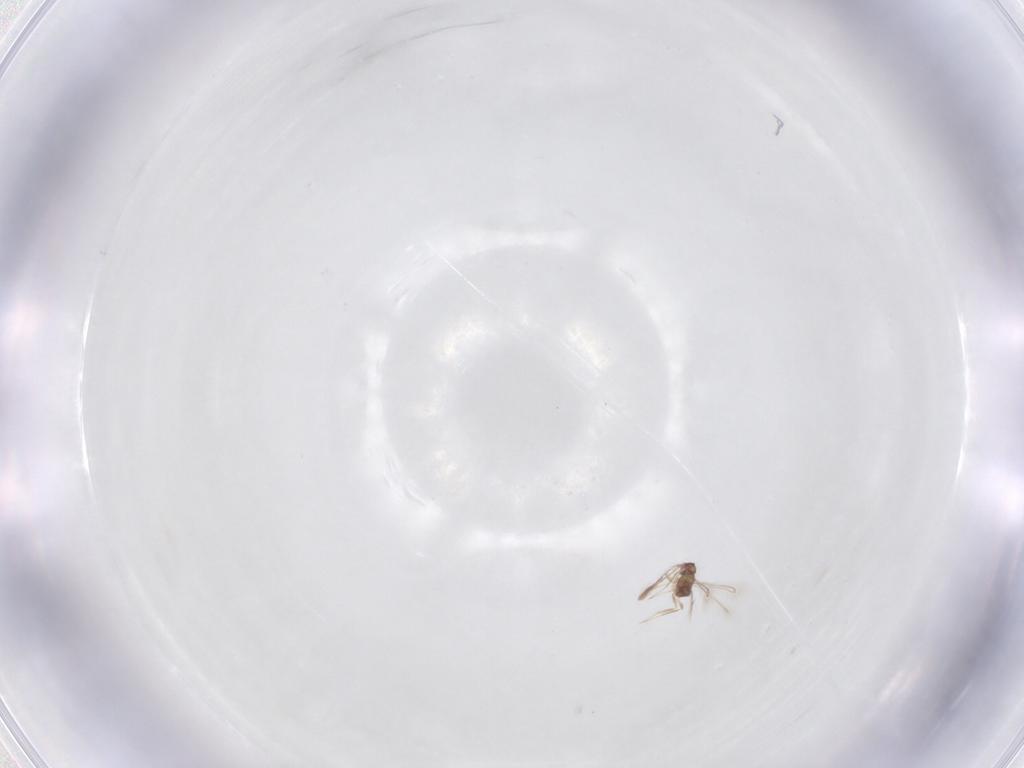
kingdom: Animalia
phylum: Arthropoda
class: Insecta
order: Hymenoptera
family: Mymaridae
